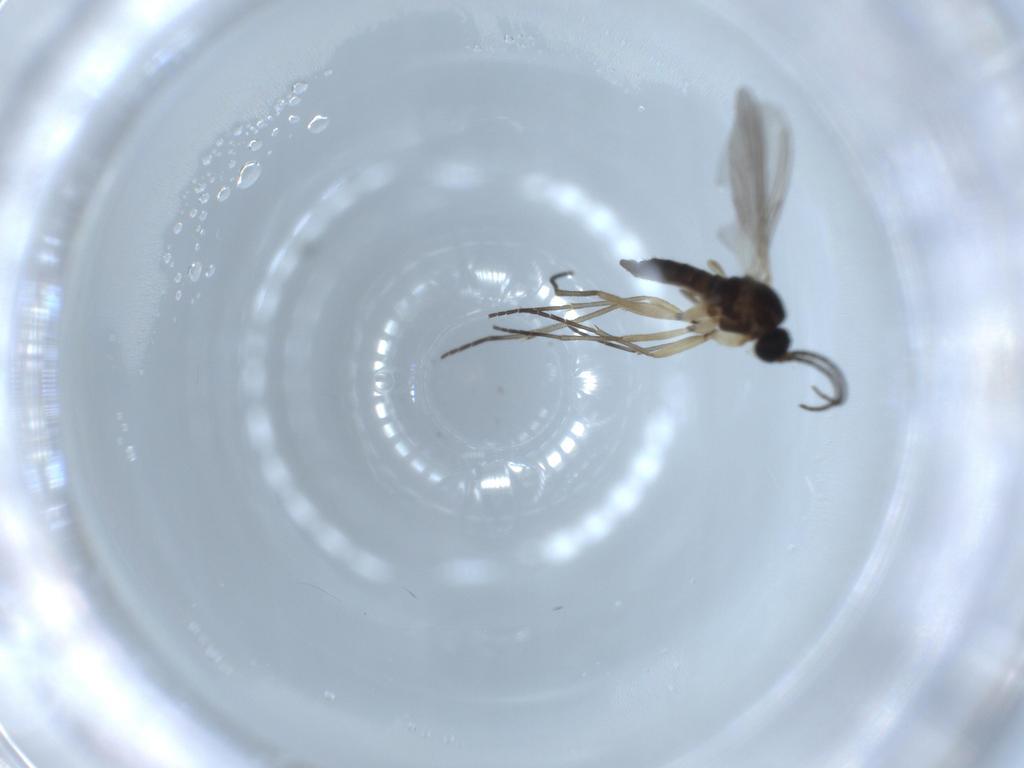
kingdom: Animalia
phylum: Arthropoda
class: Insecta
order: Diptera
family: Sciaridae
